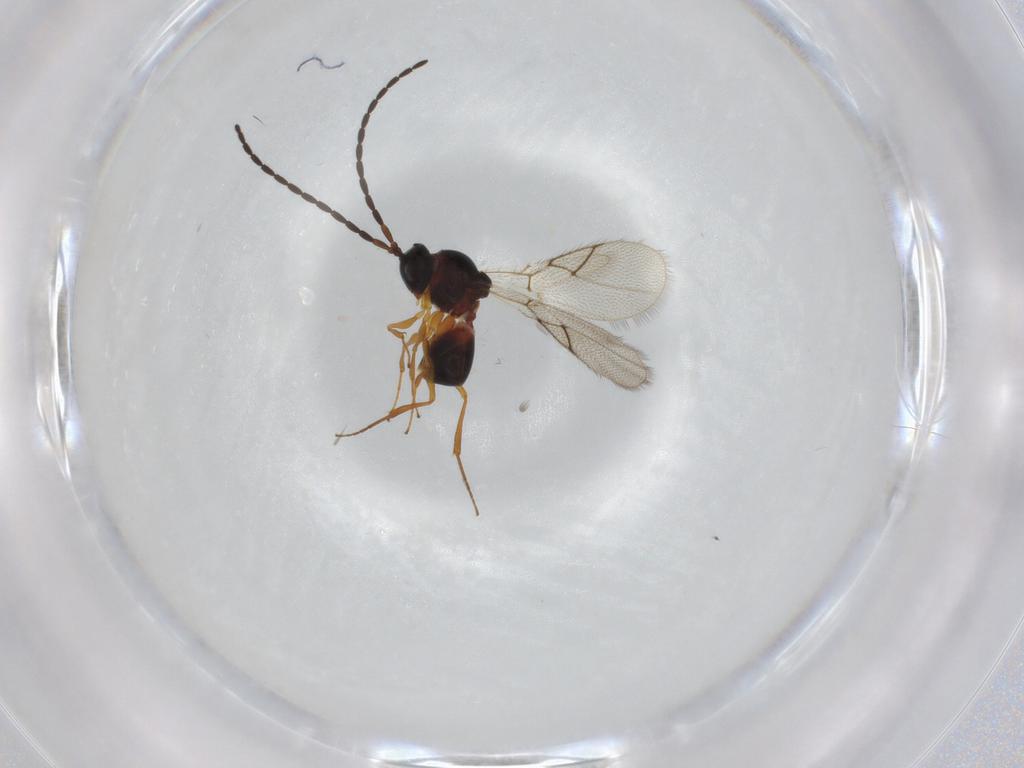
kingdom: Animalia
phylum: Arthropoda
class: Insecta
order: Hymenoptera
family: Figitidae
